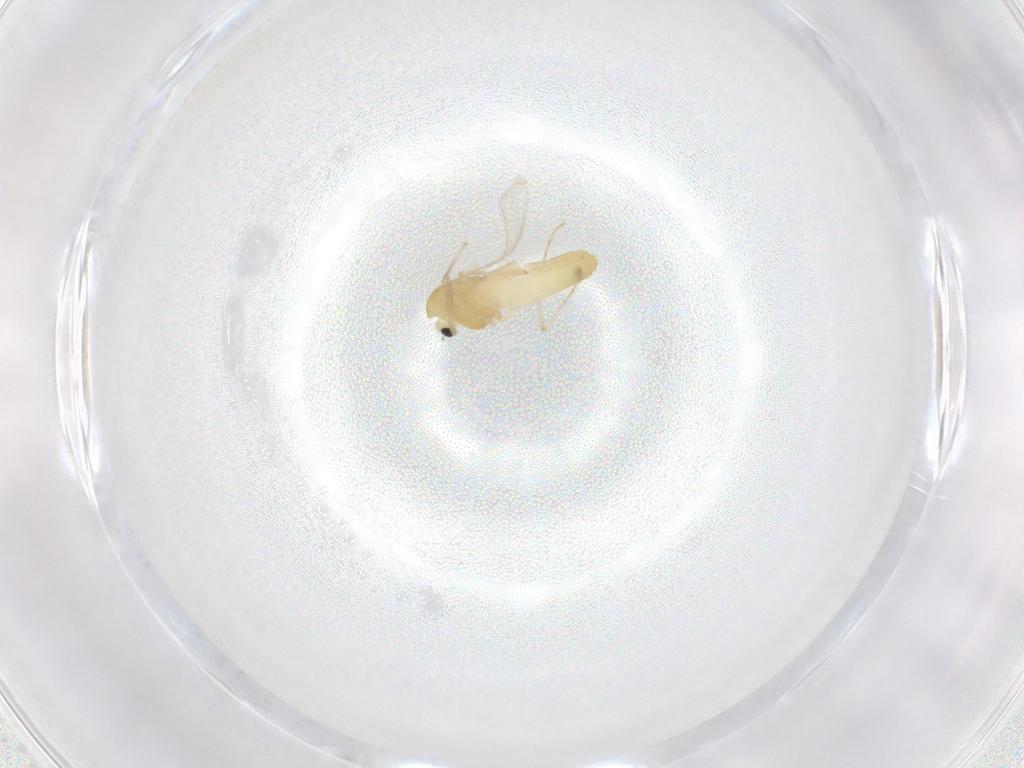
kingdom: Animalia
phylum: Arthropoda
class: Insecta
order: Diptera
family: Chironomidae
